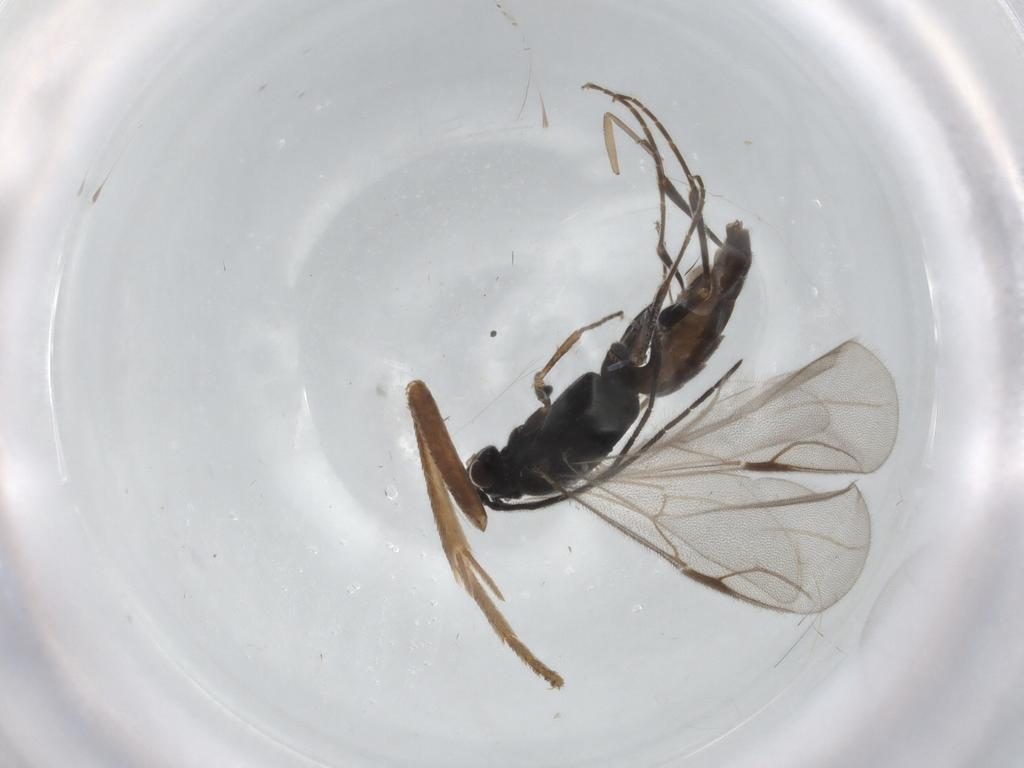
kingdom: Animalia
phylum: Arthropoda
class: Insecta
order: Hymenoptera
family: Dryinidae
